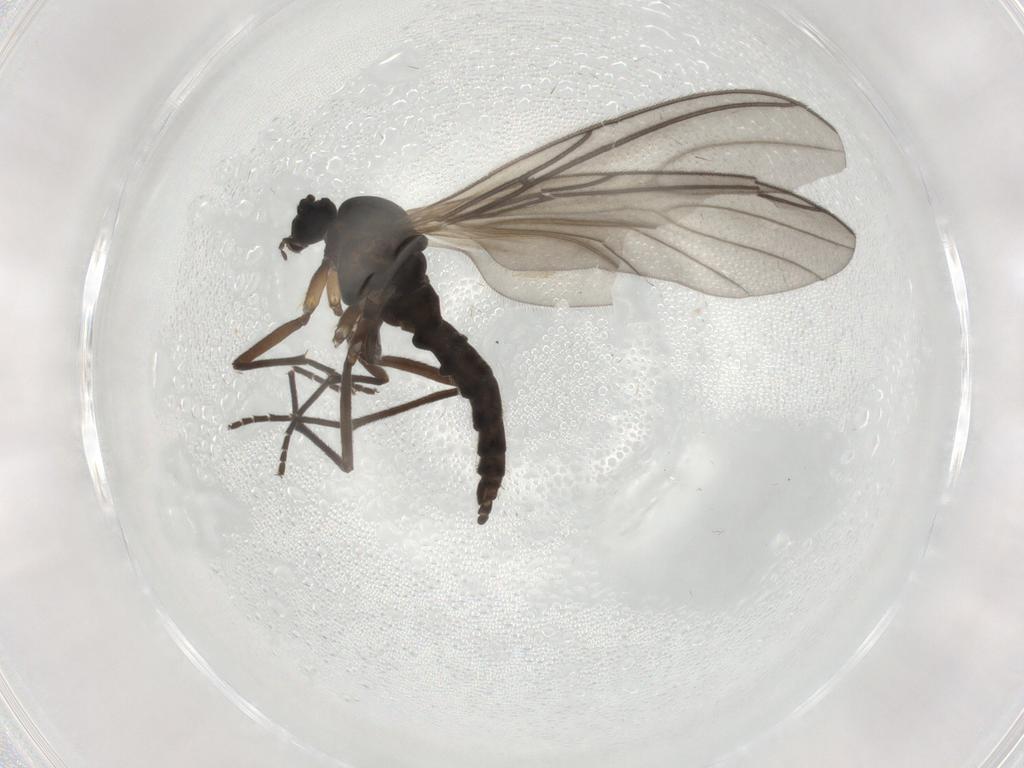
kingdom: Animalia
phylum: Arthropoda
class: Insecta
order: Diptera
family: Sciaridae
